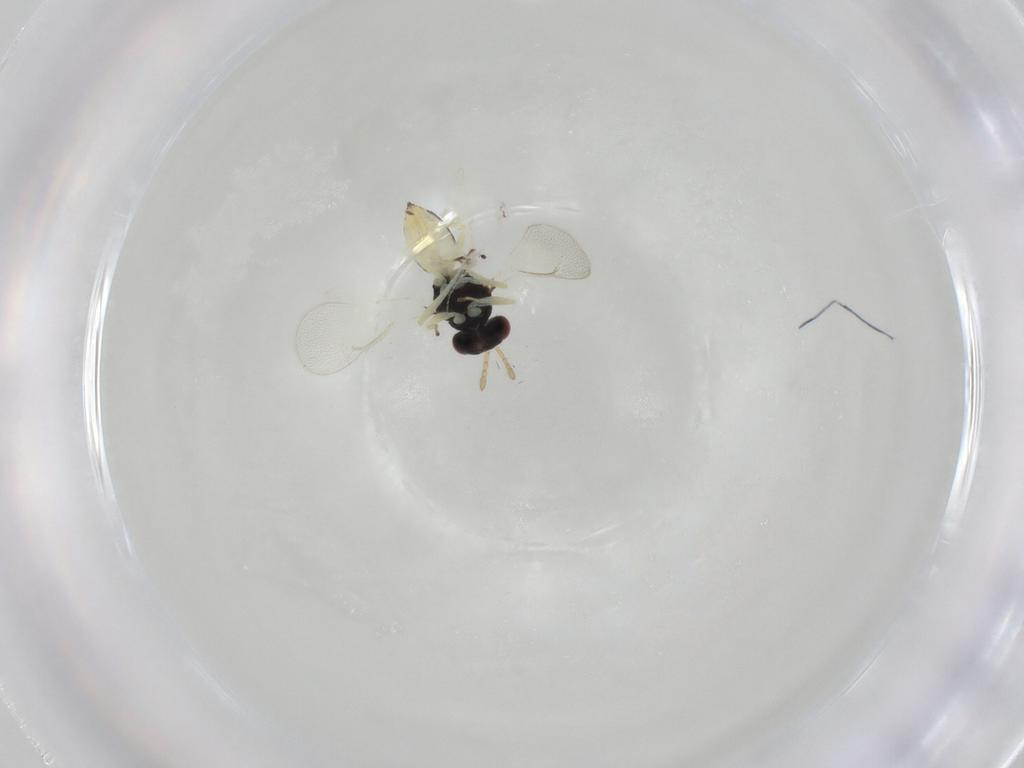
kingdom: Animalia
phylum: Arthropoda
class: Insecta
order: Hymenoptera
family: Eulophidae
